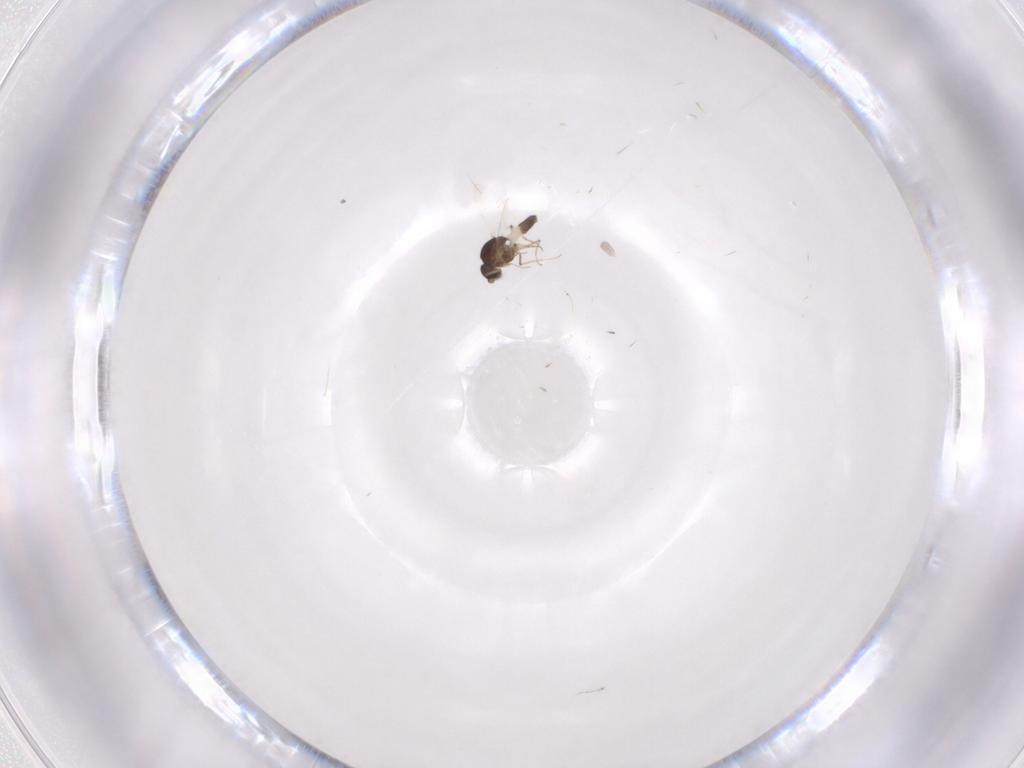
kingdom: Animalia
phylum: Arthropoda
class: Insecta
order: Diptera
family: Ceratopogonidae
